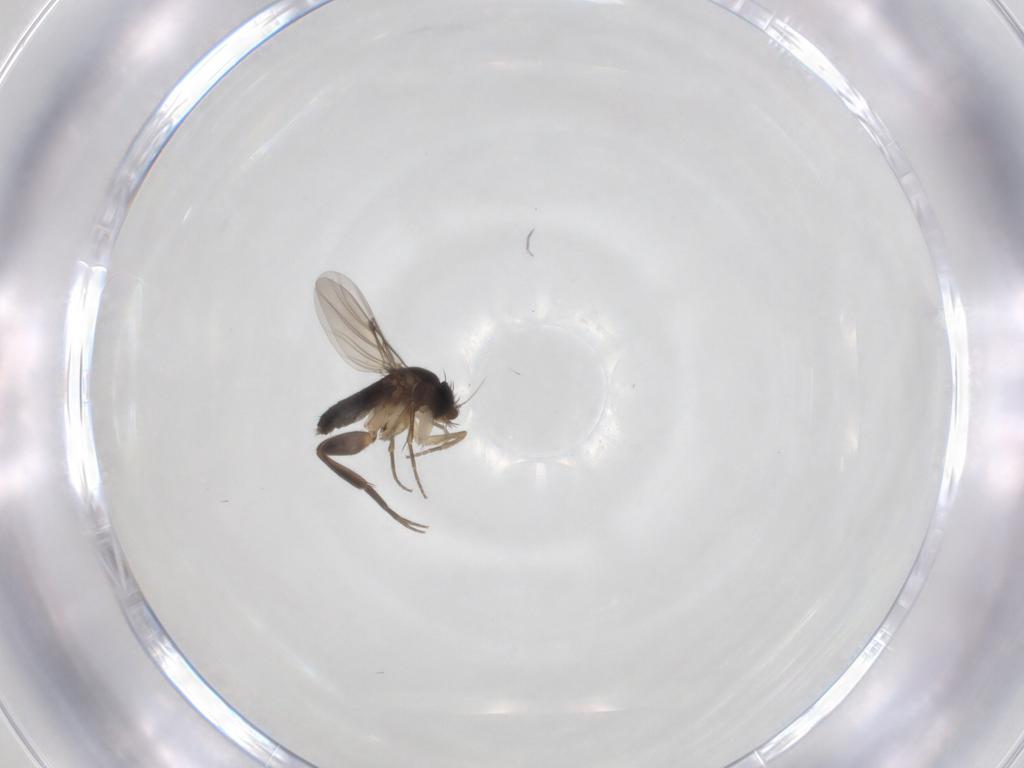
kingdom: Animalia
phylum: Arthropoda
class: Insecta
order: Diptera
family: Dolichopodidae
